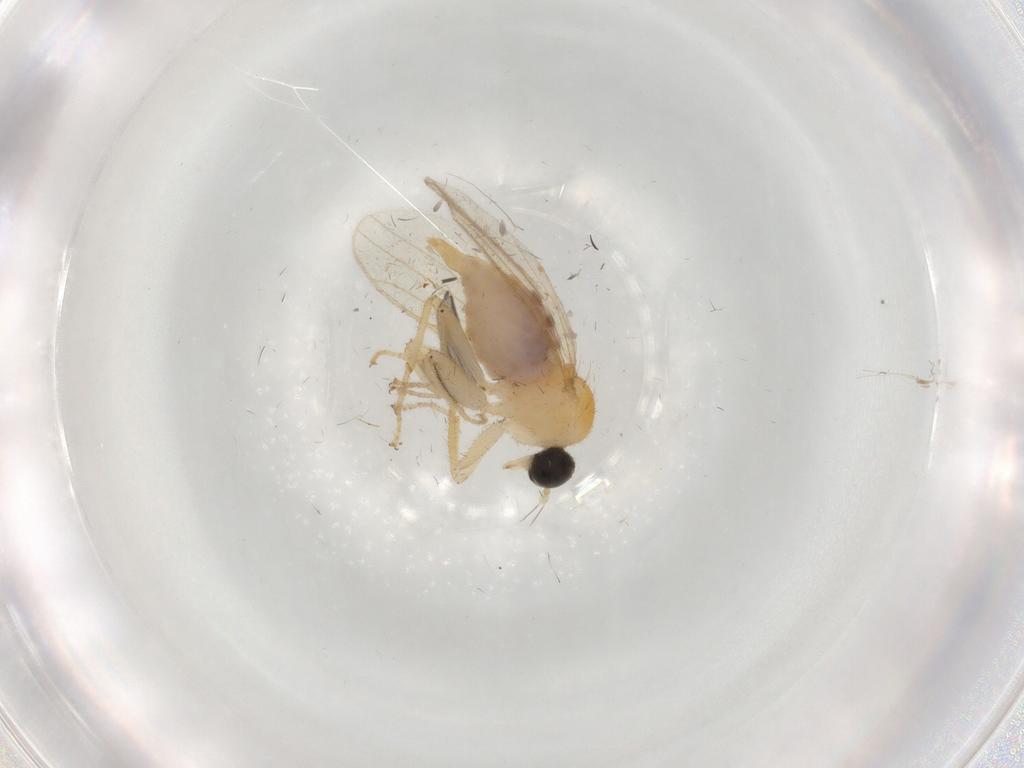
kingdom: Animalia
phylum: Arthropoda
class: Insecta
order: Diptera
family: Hybotidae
